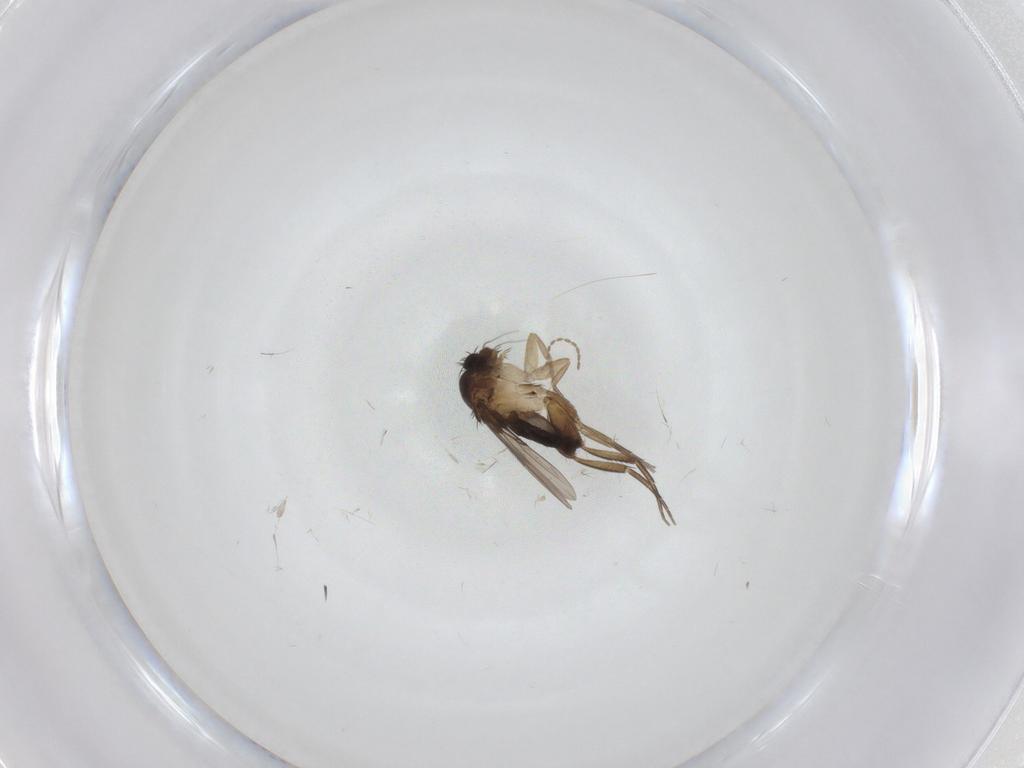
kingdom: Animalia
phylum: Arthropoda
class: Insecta
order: Diptera
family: Phoridae
